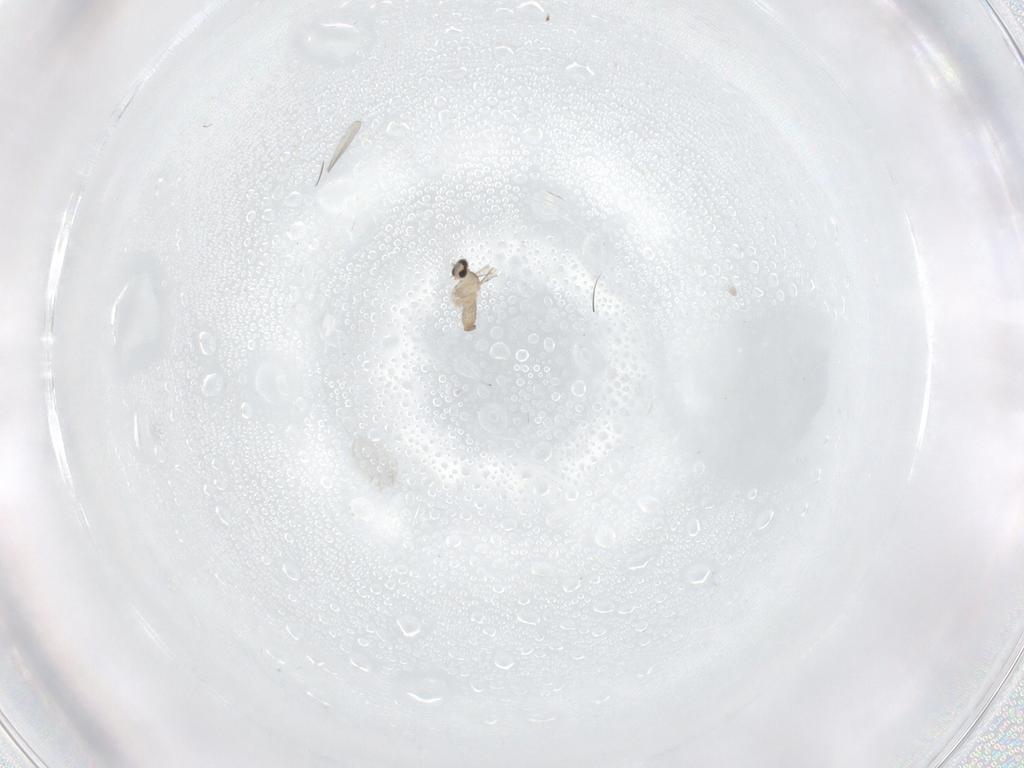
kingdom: Animalia
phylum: Arthropoda
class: Insecta
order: Diptera
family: Cecidomyiidae
